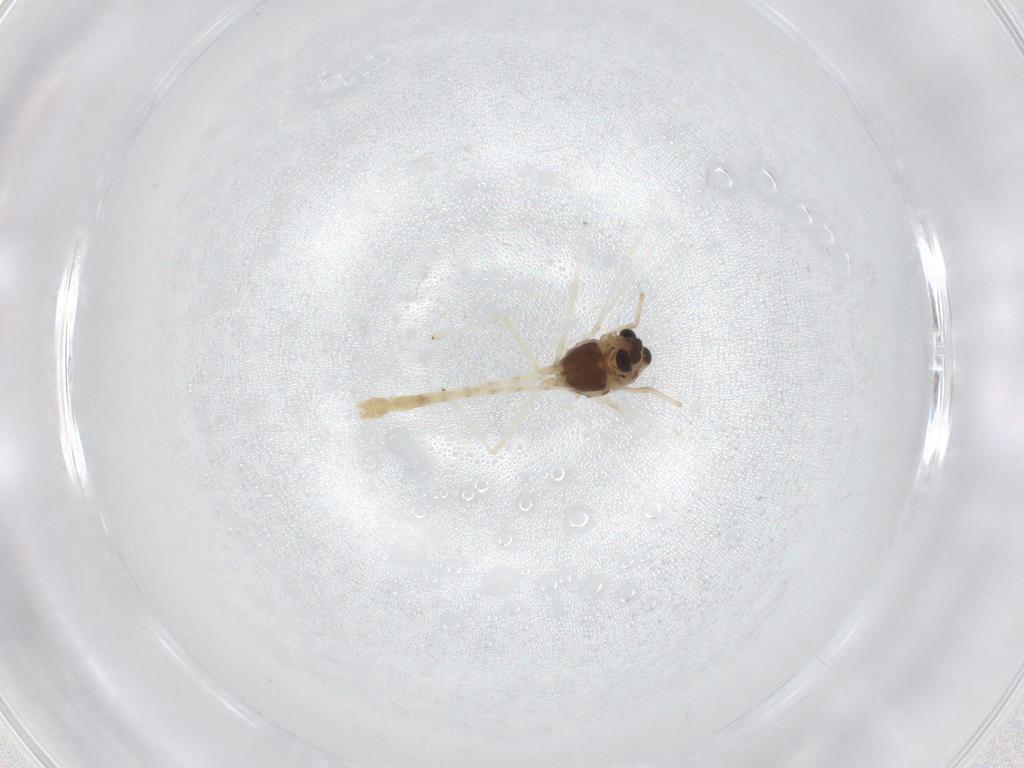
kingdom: Animalia
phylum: Arthropoda
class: Insecta
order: Diptera
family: Chironomidae
